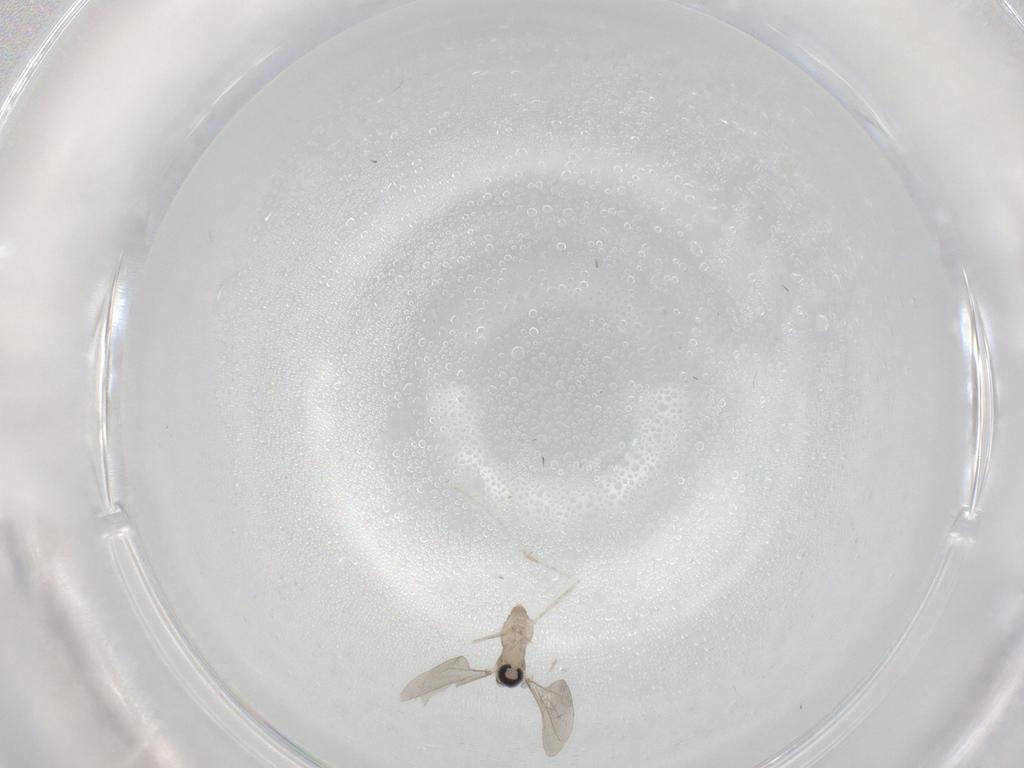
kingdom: Animalia
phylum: Arthropoda
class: Insecta
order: Diptera
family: Cecidomyiidae
